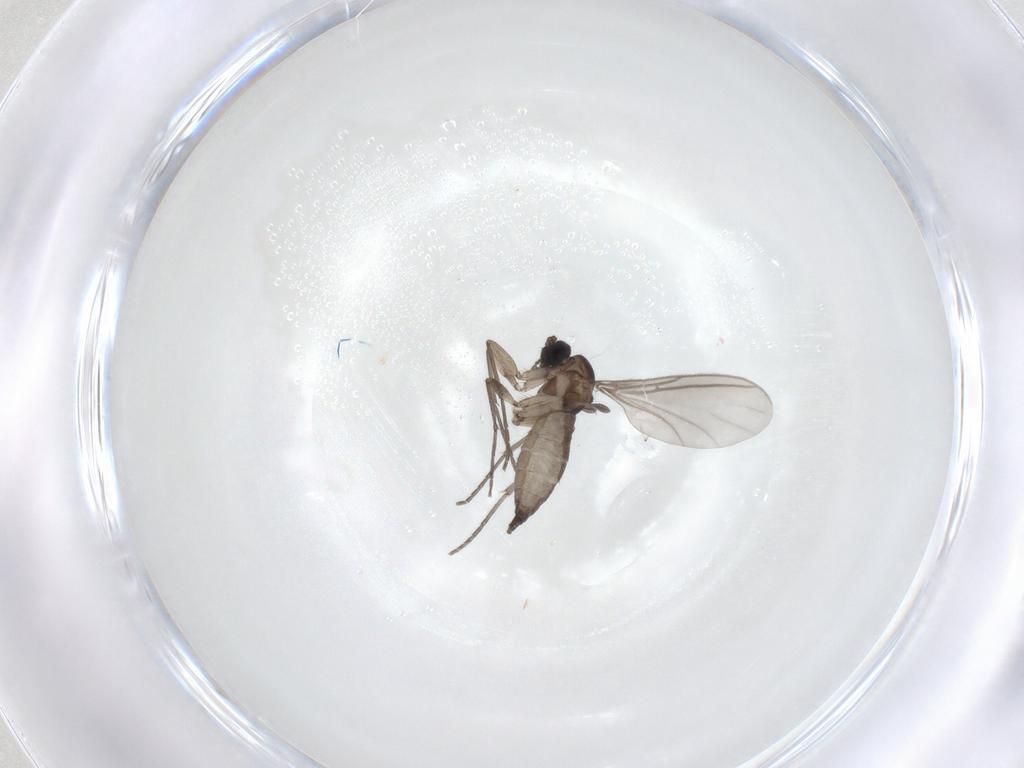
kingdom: Animalia
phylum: Arthropoda
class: Insecta
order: Diptera
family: Sciaridae
